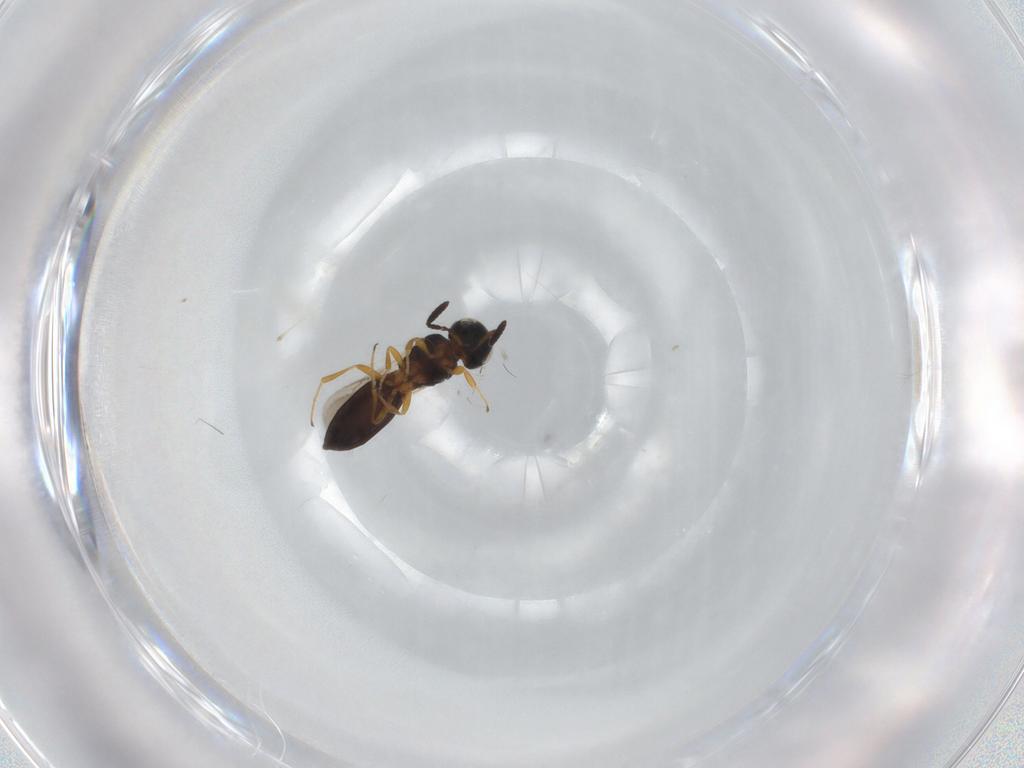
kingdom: Animalia
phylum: Arthropoda
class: Insecta
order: Hymenoptera
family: Scelionidae
